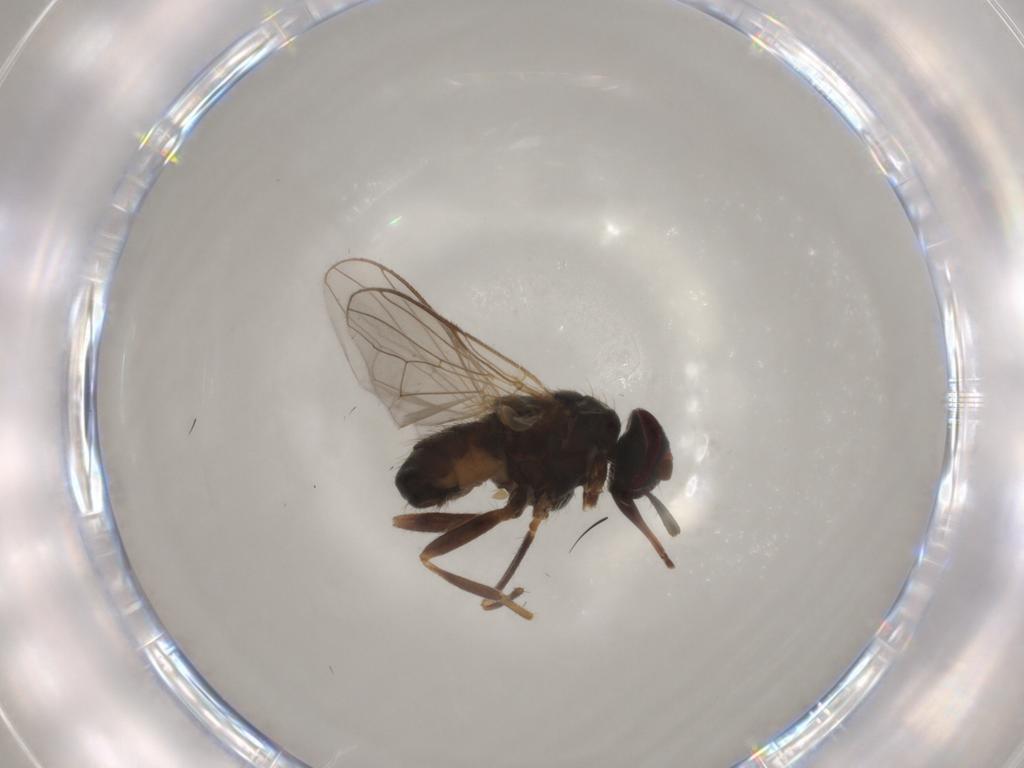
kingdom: Animalia
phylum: Arthropoda
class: Insecta
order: Diptera
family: Muscidae
